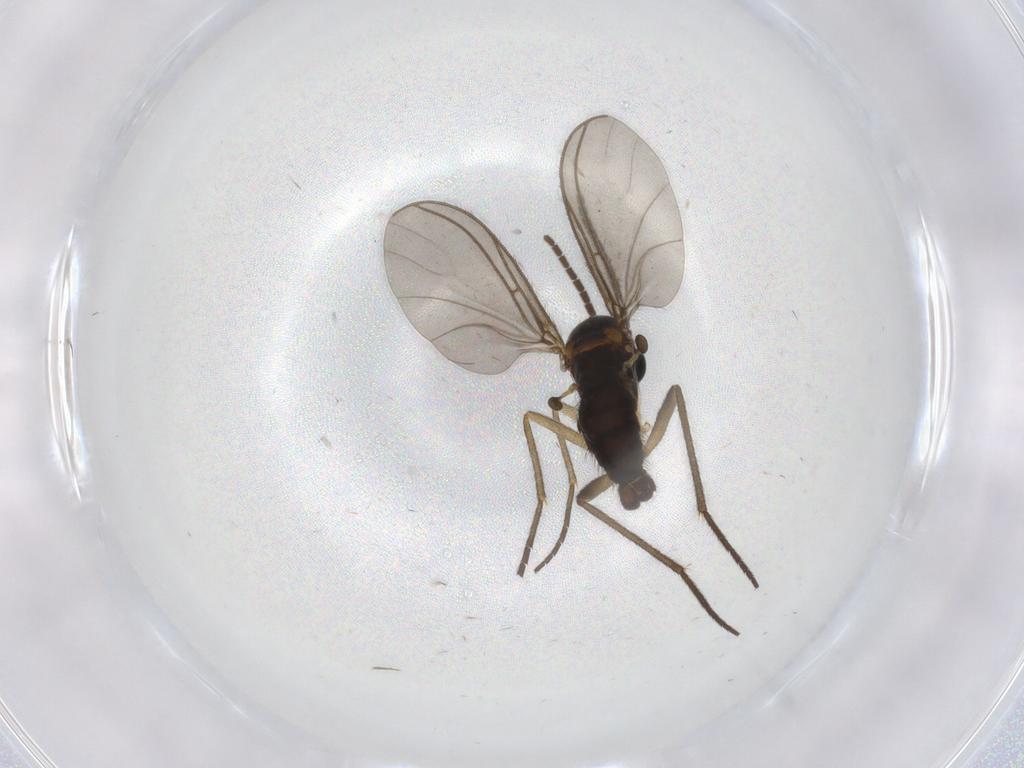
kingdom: Animalia
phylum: Arthropoda
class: Insecta
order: Diptera
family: Sciaridae
